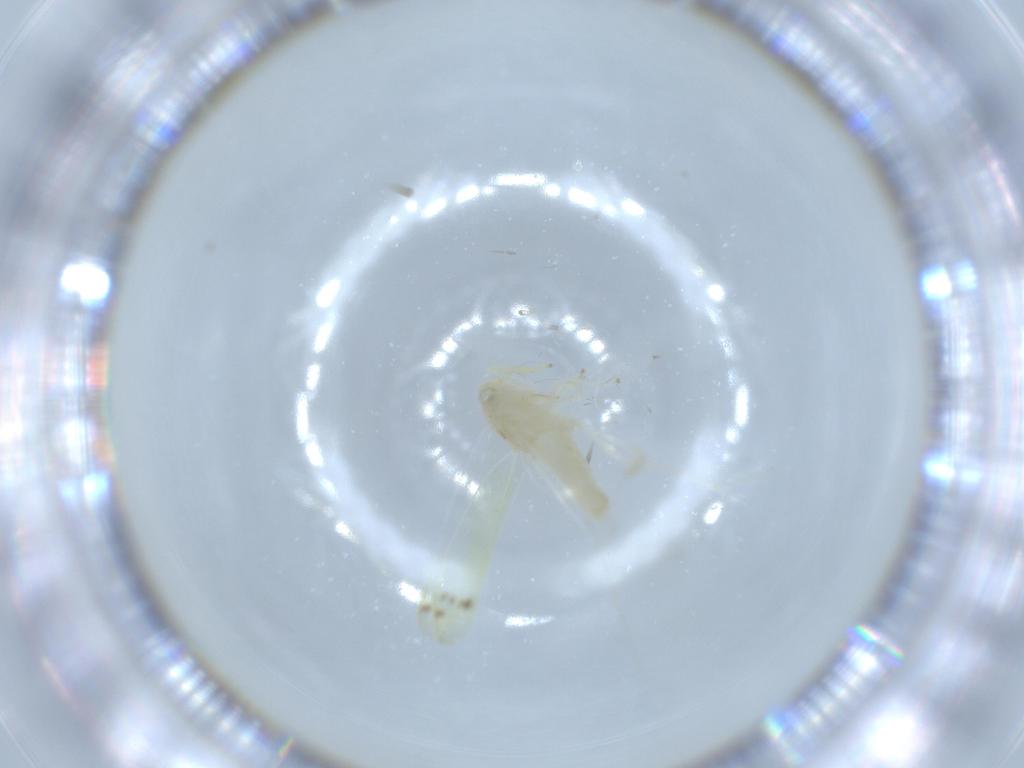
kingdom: Animalia
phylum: Arthropoda
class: Insecta
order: Hemiptera
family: Cicadellidae
